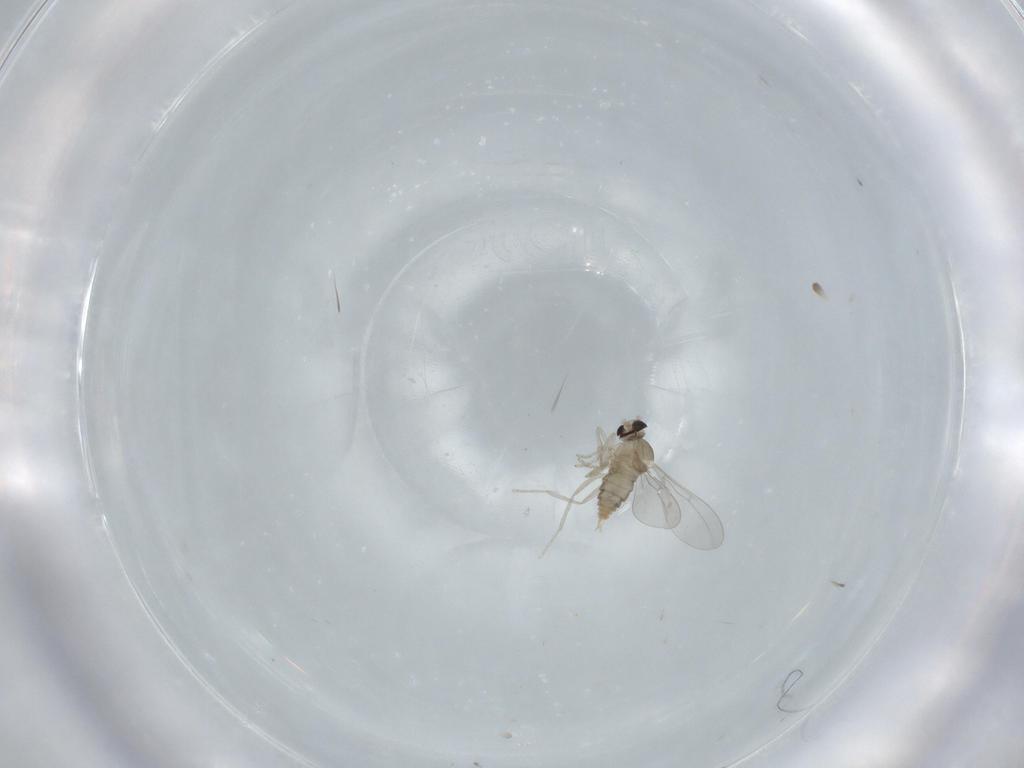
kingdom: Animalia
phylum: Arthropoda
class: Insecta
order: Diptera
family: Cecidomyiidae
